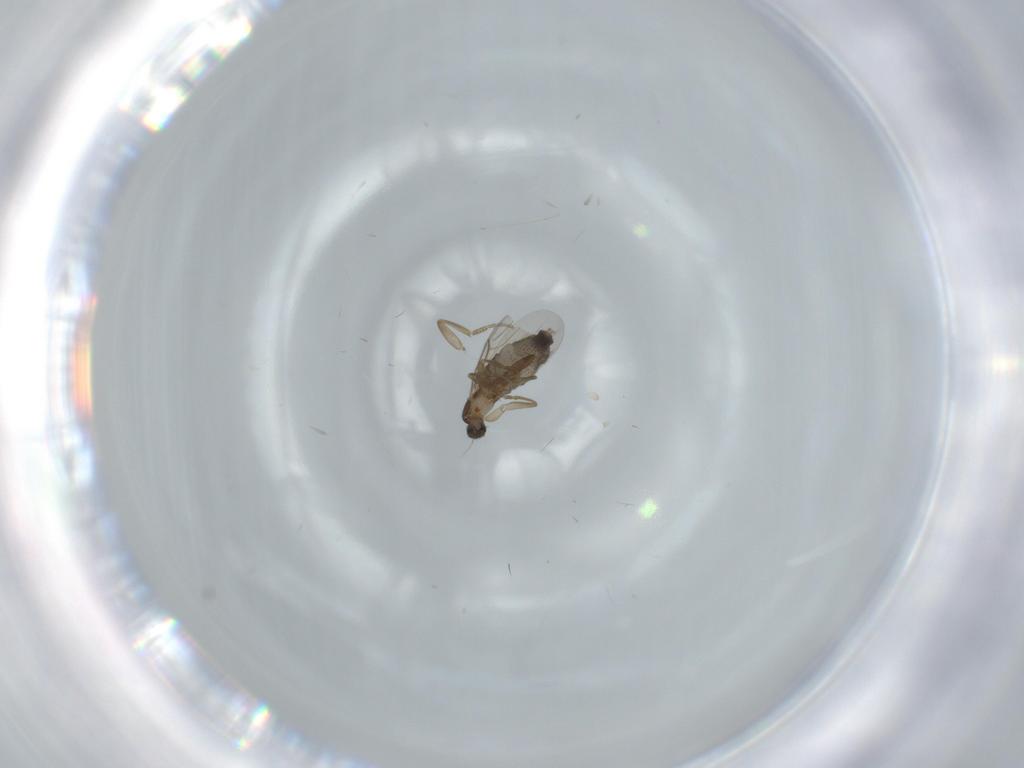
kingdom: Animalia
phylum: Arthropoda
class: Insecta
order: Diptera
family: Phoridae
